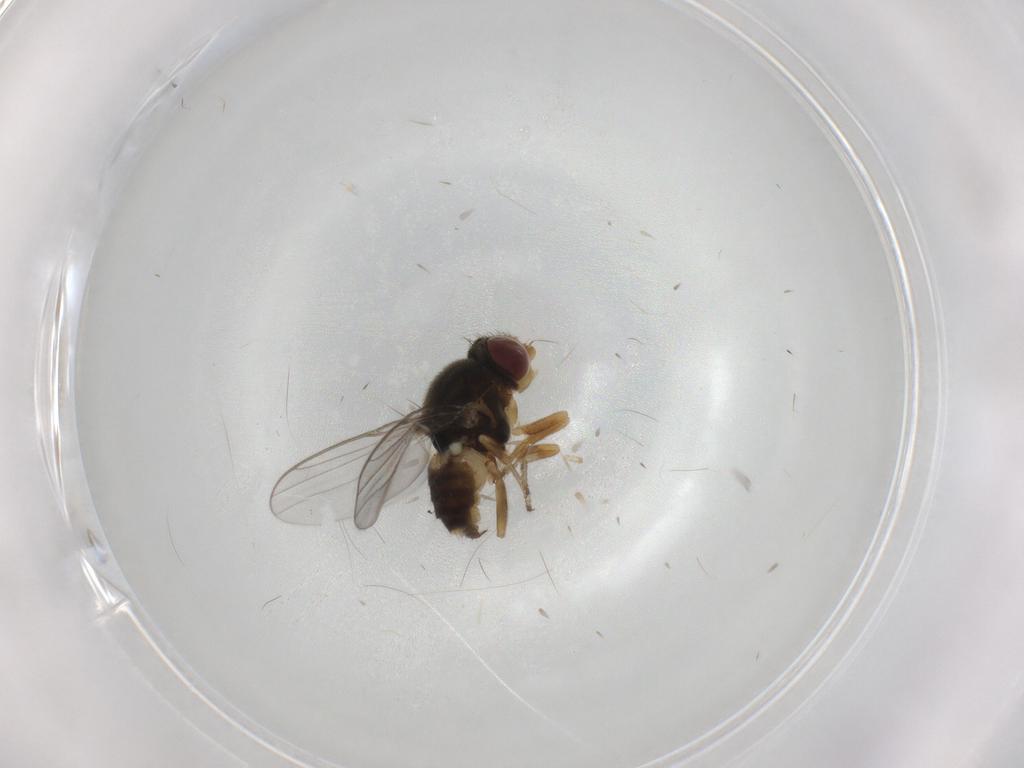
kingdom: Animalia
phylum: Arthropoda
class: Insecta
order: Diptera
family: Chloropidae
